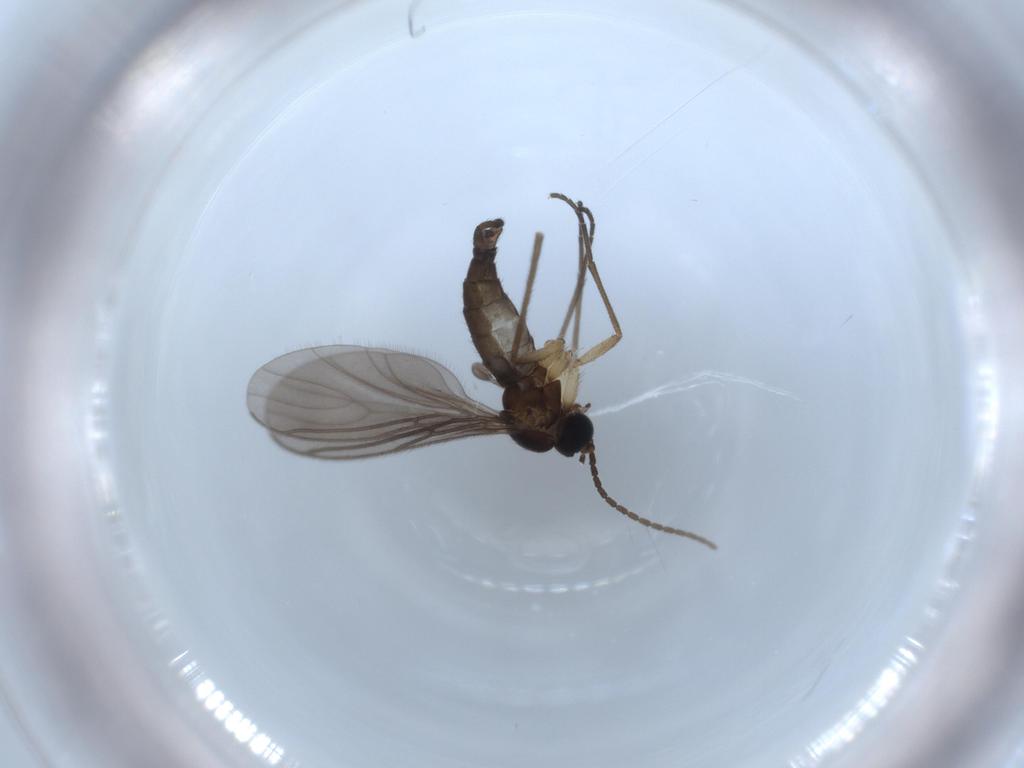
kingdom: Animalia
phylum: Arthropoda
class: Insecta
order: Diptera
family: Sciaridae
